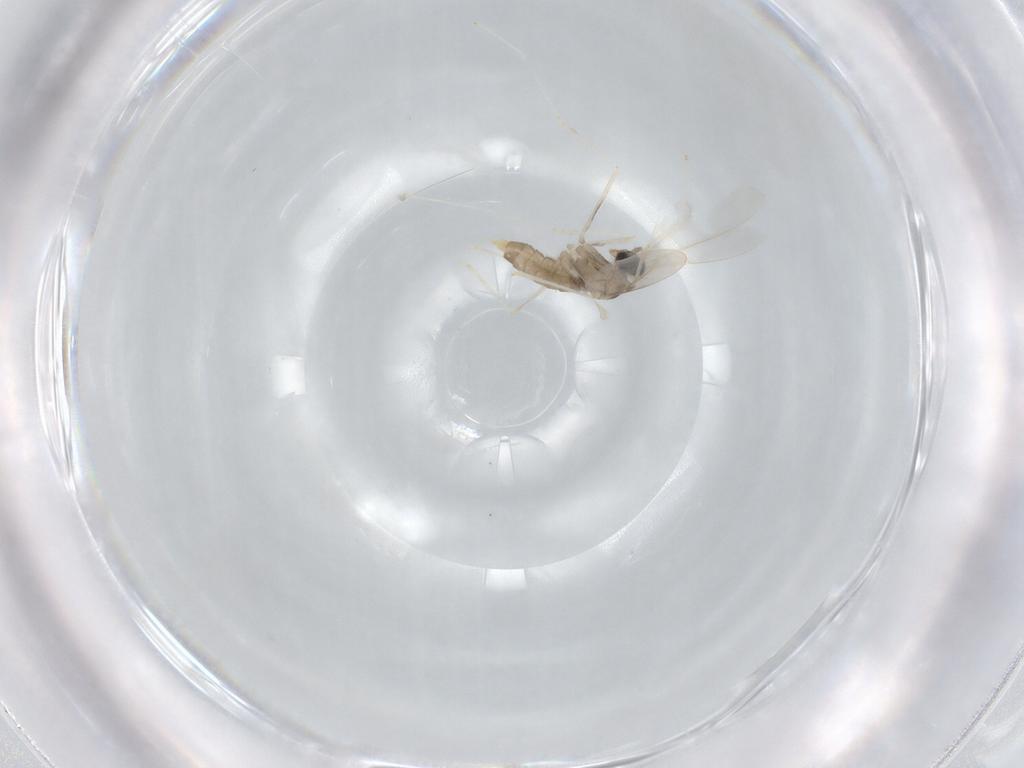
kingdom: Animalia
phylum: Arthropoda
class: Insecta
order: Diptera
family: Cecidomyiidae
